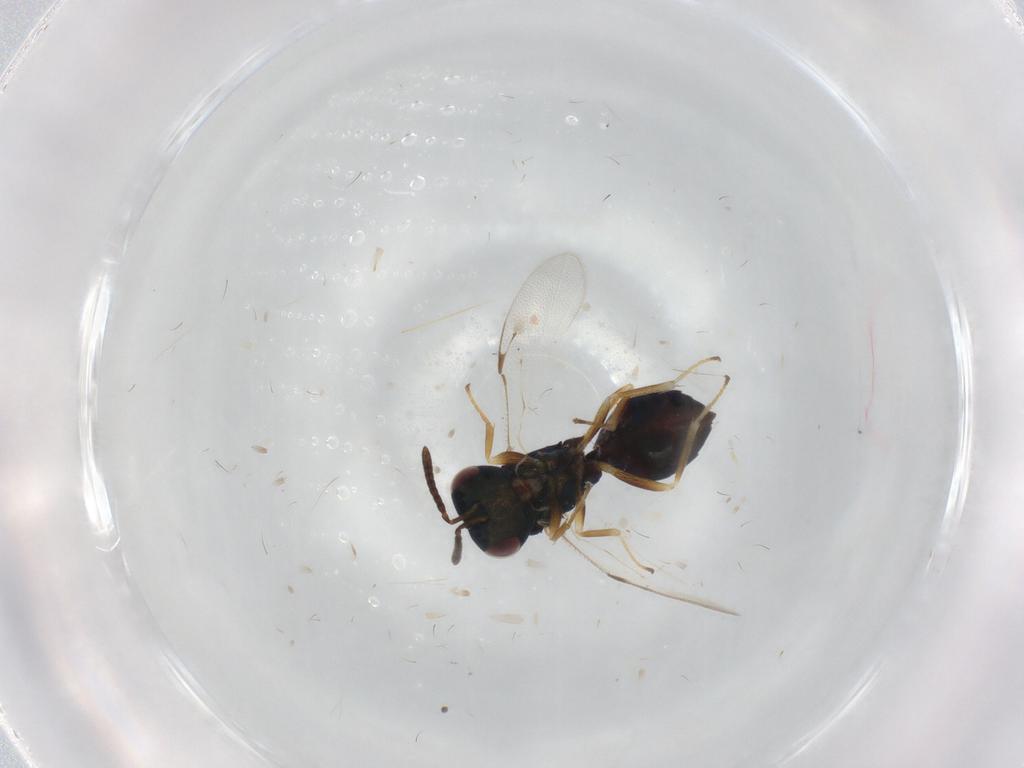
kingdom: Animalia
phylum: Arthropoda
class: Insecta
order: Hymenoptera
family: Pteromalidae
